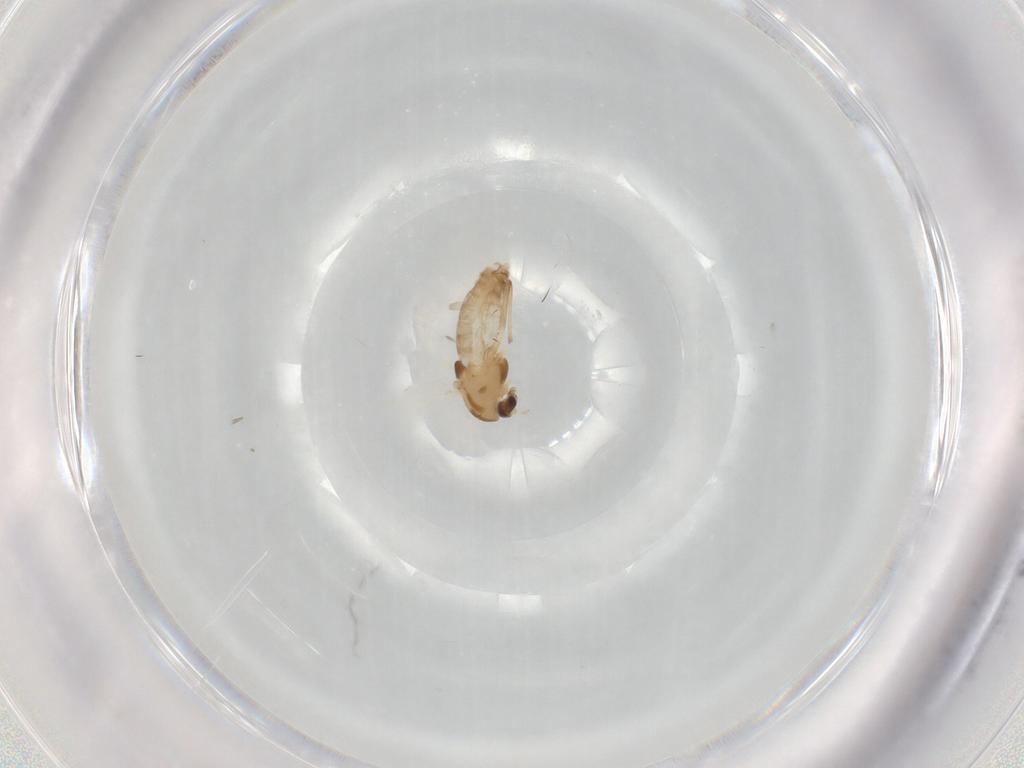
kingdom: Animalia
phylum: Arthropoda
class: Insecta
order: Diptera
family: Chironomidae
